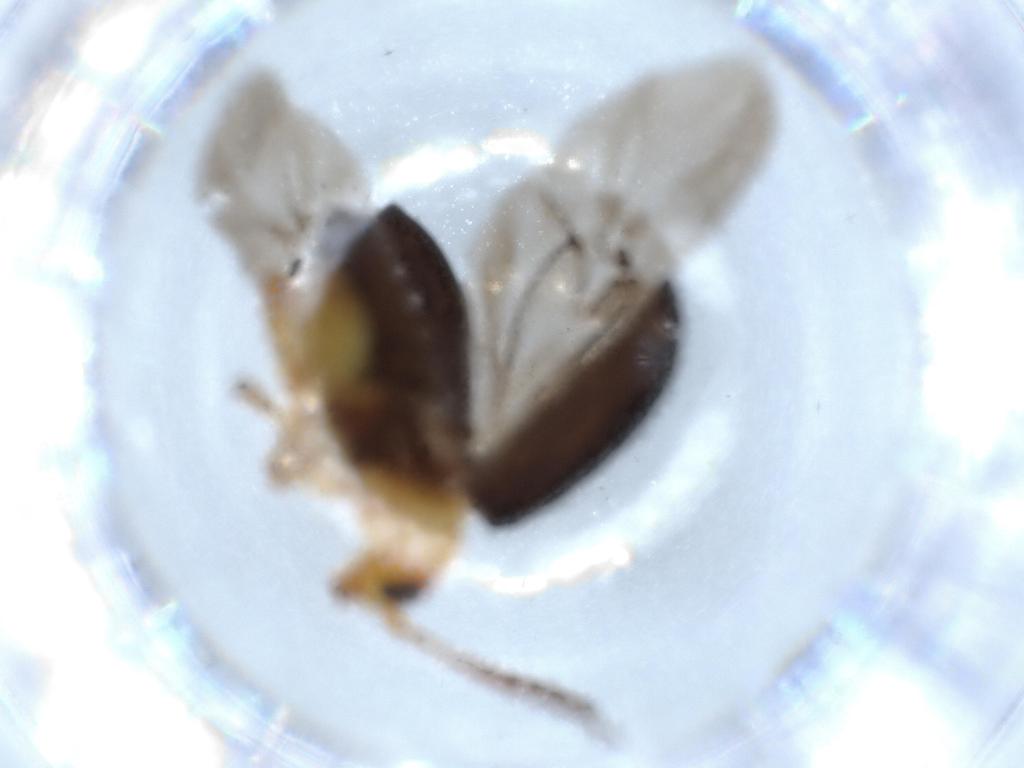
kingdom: Animalia
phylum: Arthropoda
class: Insecta
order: Coleoptera
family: Chrysomelidae
